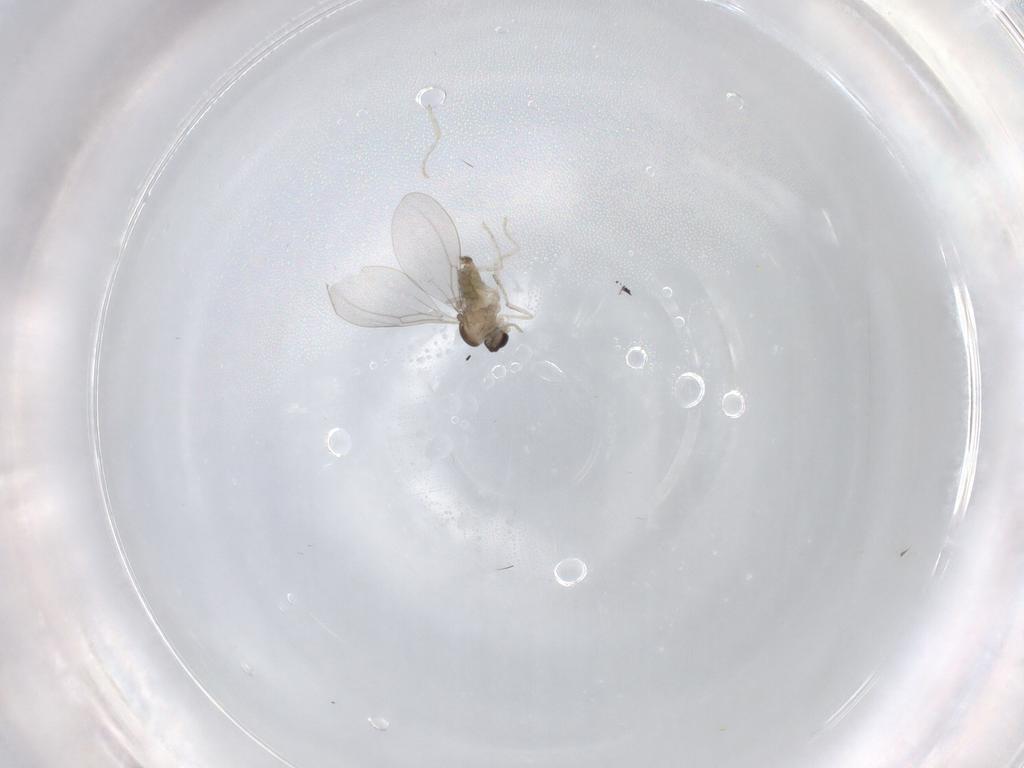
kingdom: Animalia
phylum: Arthropoda
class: Insecta
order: Diptera
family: Cecidomyiidae
